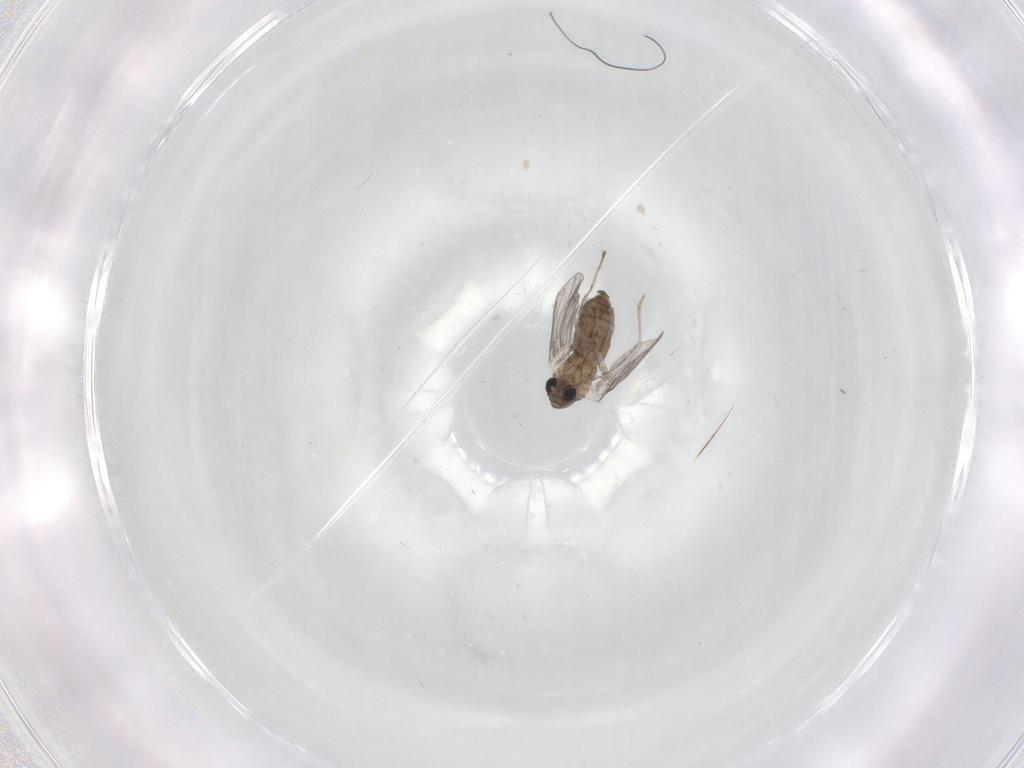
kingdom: Animalia
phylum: Arthropoda
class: Insecta
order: Diptera
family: Drosophilidae
